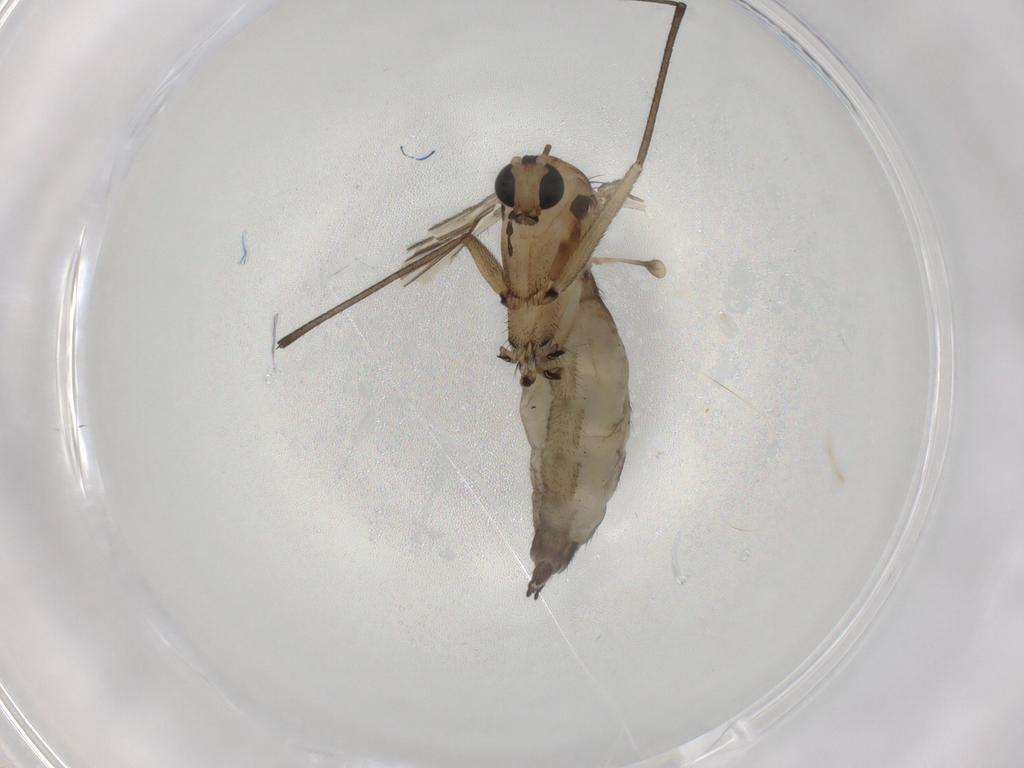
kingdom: Animalia
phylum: Arthropoda
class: Insecta
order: Diptera
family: Sciaridae
